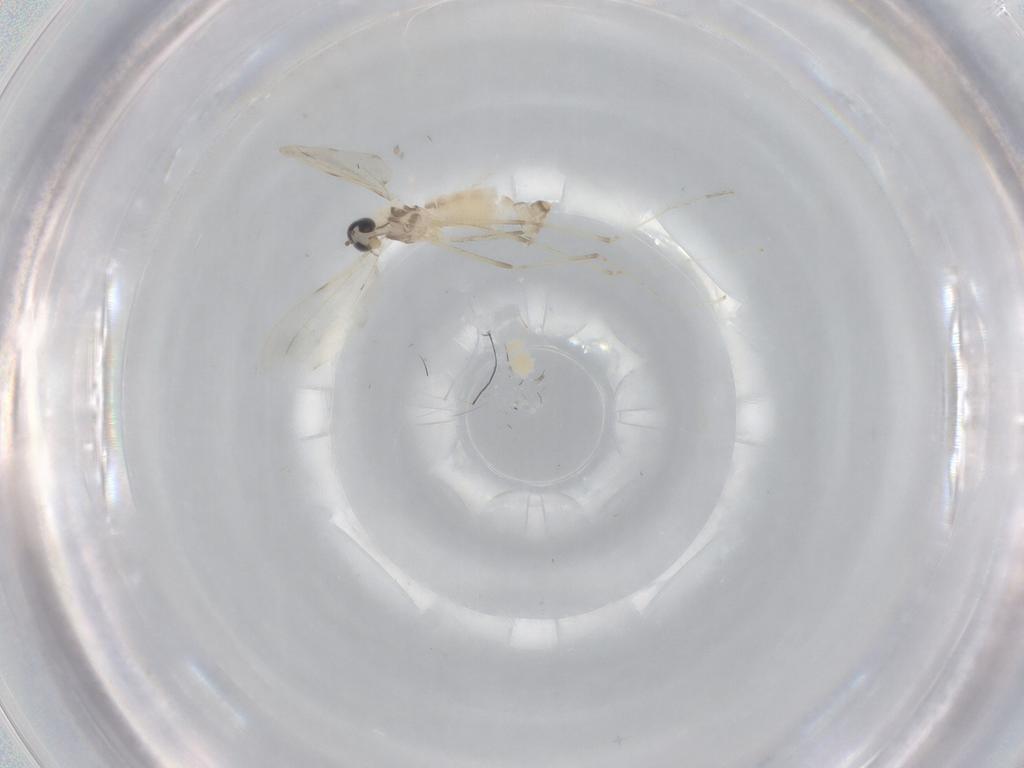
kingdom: Animalia
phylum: Arthropoda
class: Insecta
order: Diptera
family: Cecidomyiidae
